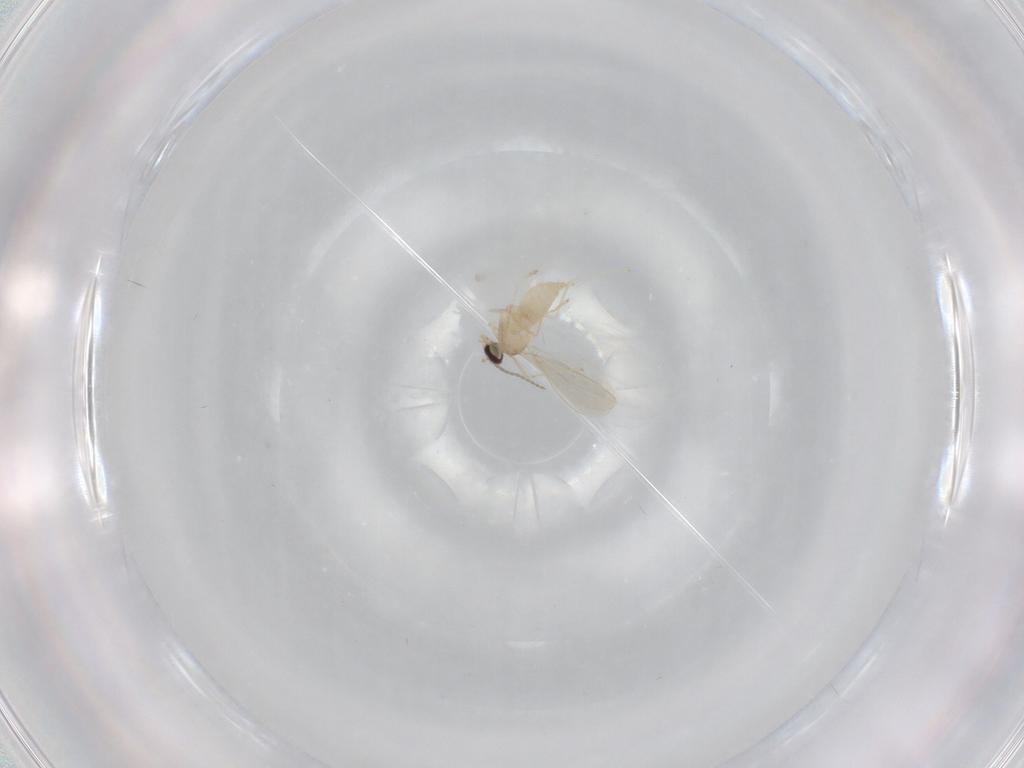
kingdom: Animalia
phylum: Arthropoda
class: Insecta
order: Diptera
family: Cecidomyiidae
